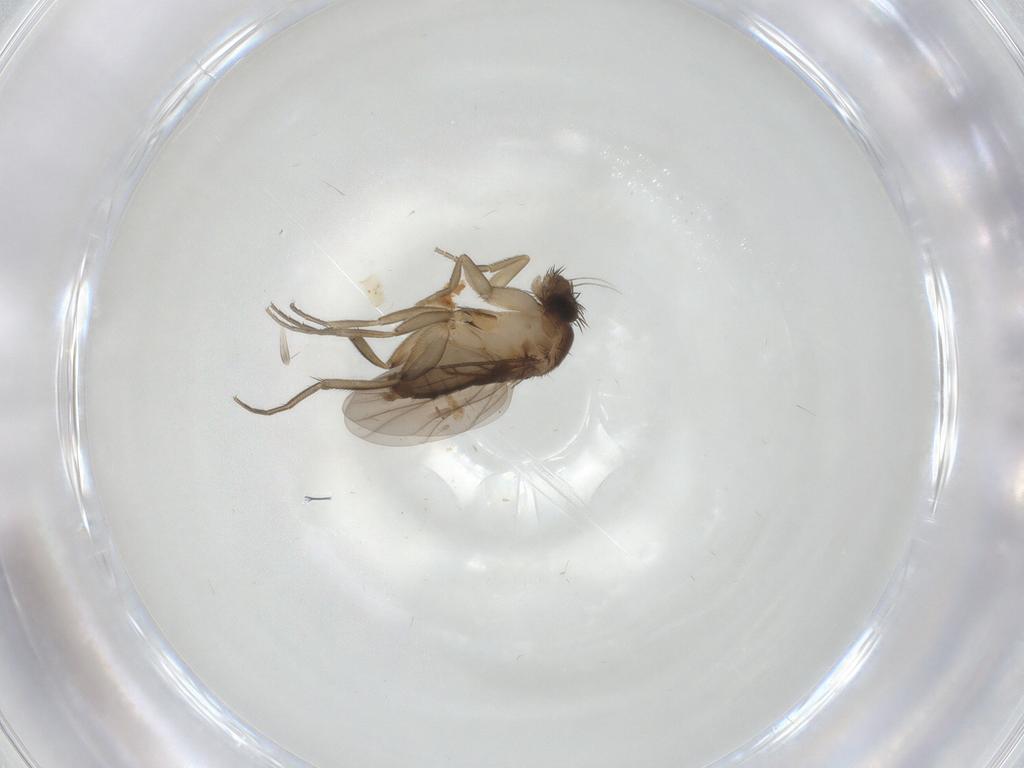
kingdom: Animalia
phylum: Arthropoda
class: Insecta
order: Diptera
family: Phoridae
